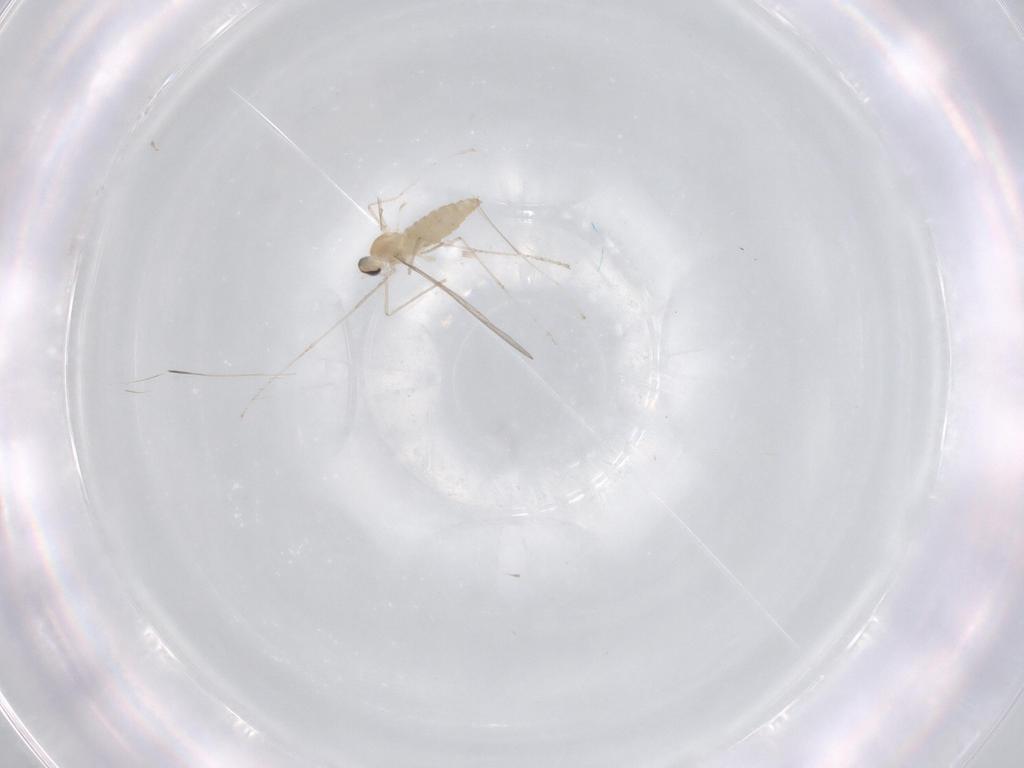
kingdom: Animalia
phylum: Arthropoda
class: Insecta
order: Diptera
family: Cecidomyiidae
